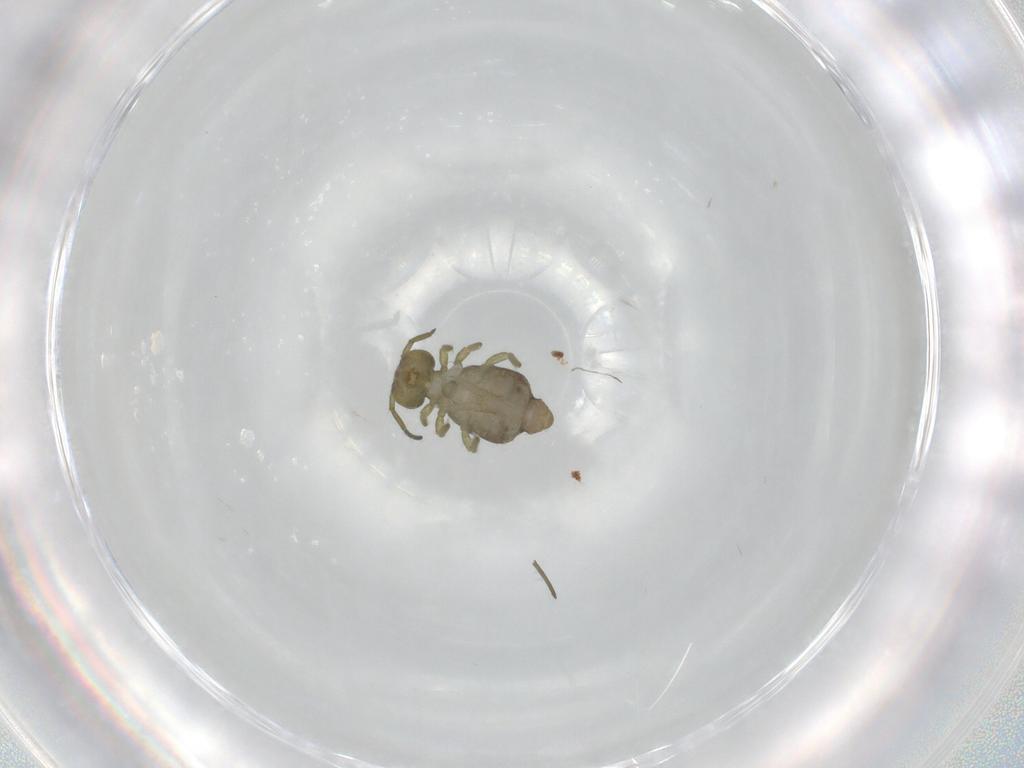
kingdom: Animalia
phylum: Arthropoda
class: Collembola
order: Symphypleona
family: Sminthuridae
